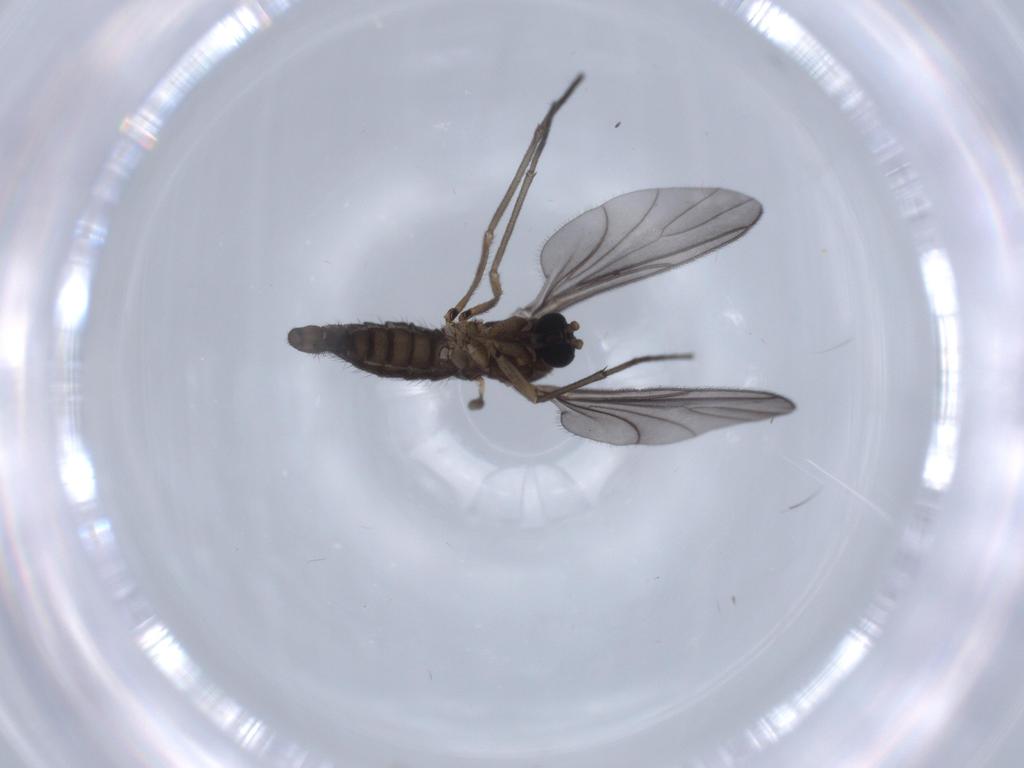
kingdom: Animalia
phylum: Arthropoda
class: Insecta
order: Diptera
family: Sciaridae
